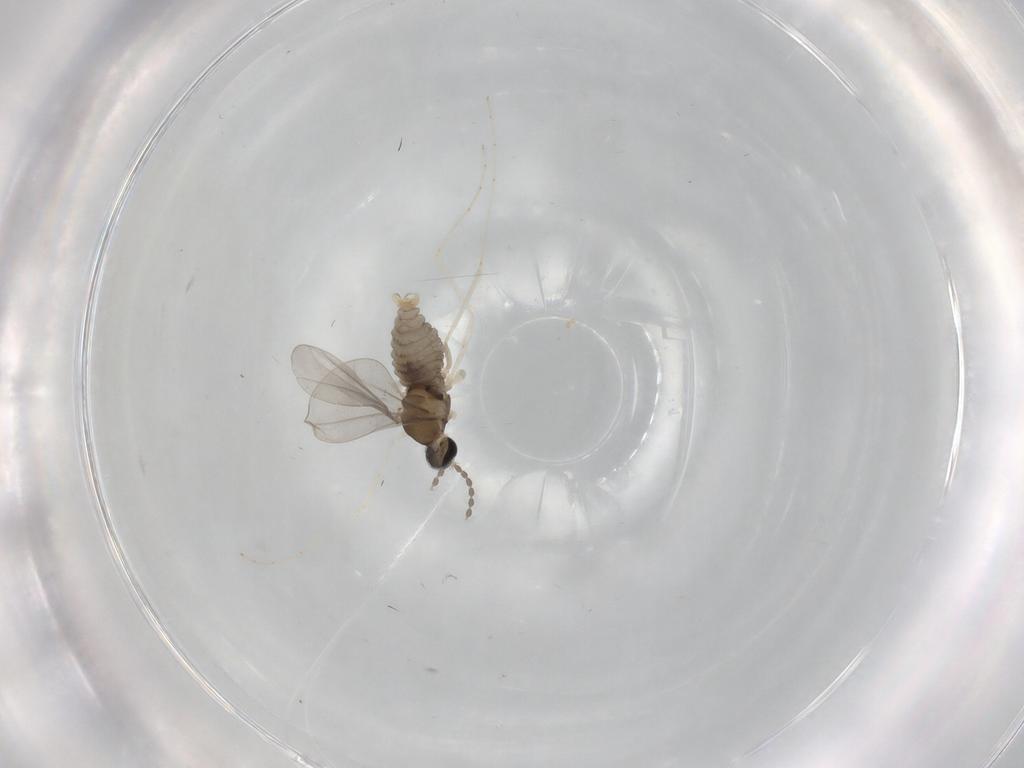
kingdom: Animalia
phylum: Arthropoda
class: Insecta
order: Diptera
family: Cecidomyiidae
